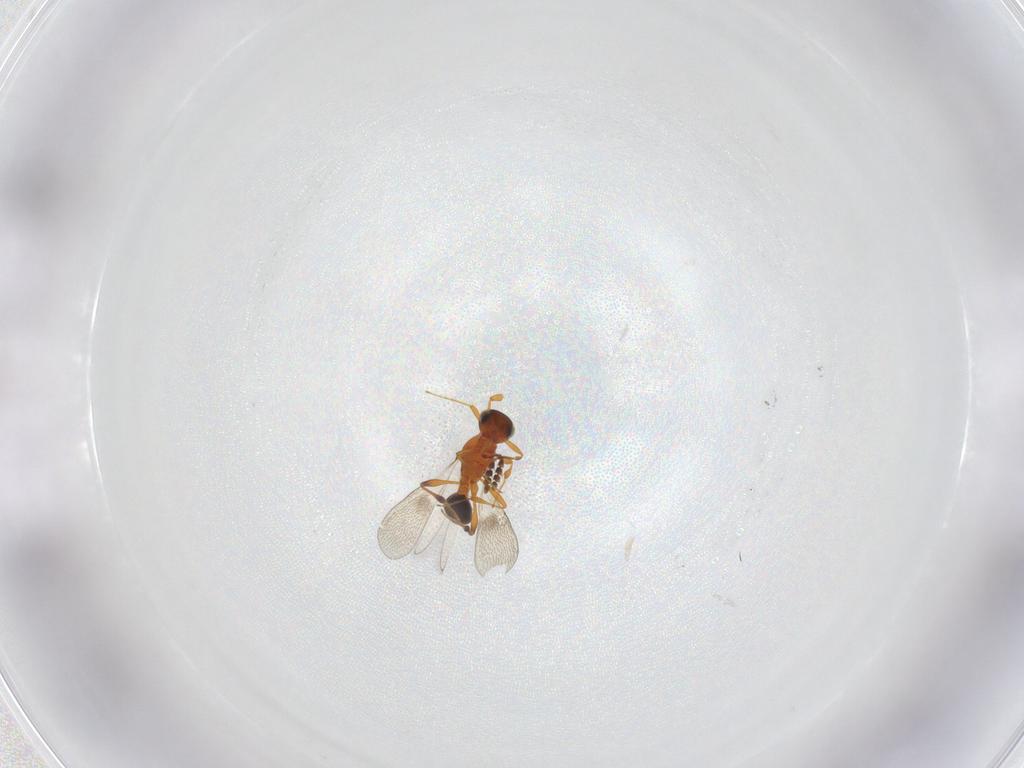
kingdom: Animalia
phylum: Arthropoda
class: Insecta
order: Hymenoptera
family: Platygastridae
